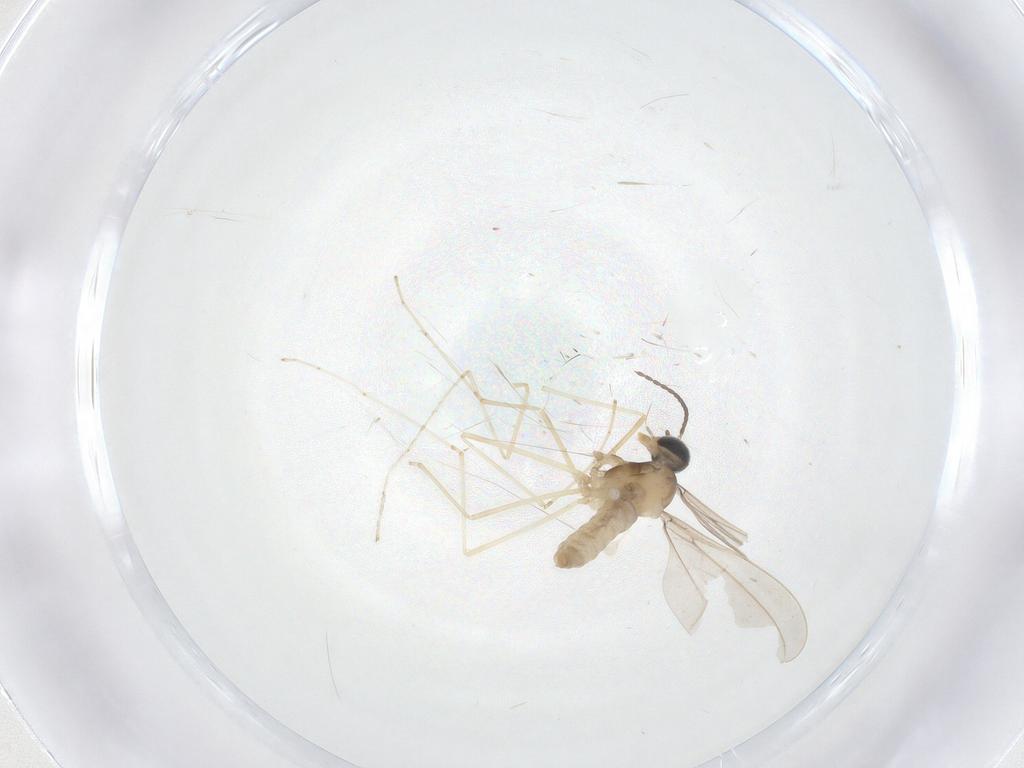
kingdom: Animalia
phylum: Arthropoda
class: Insecta
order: Diptera
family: Cecidomyiidae
